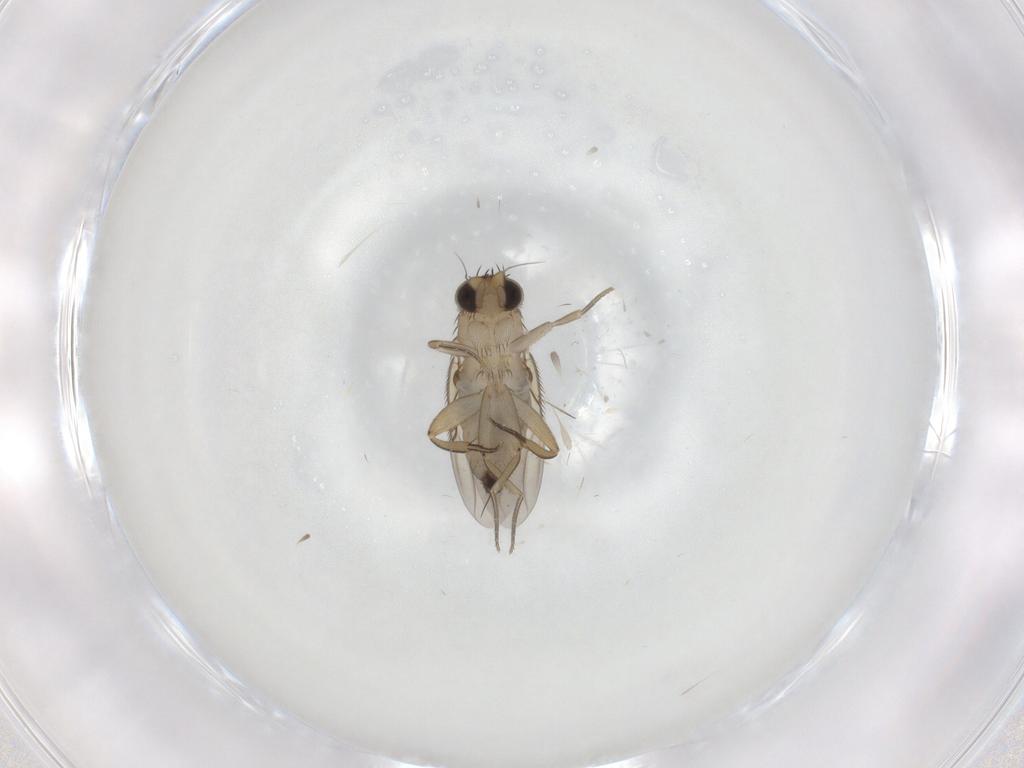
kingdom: Animalia
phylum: Arthropoda
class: Insecta
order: Diptera
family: Phoridae
